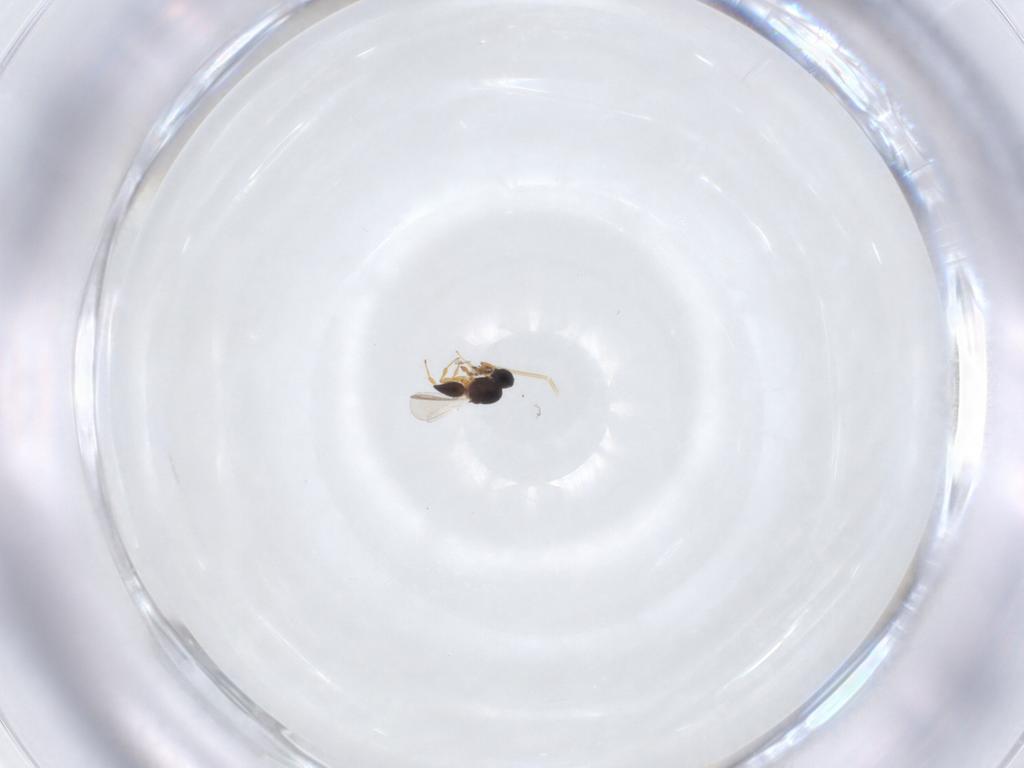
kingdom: Animalia
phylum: Arthropoda
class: Insecta
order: Hymenoptera
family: Platygastridae
